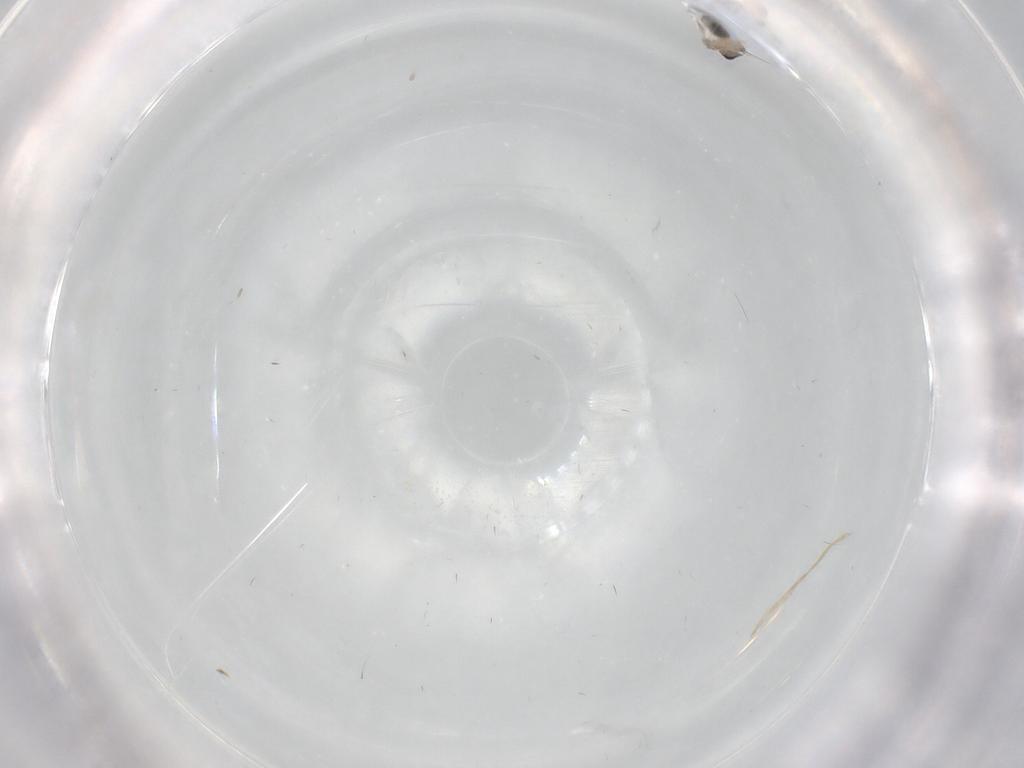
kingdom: Animalia
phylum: Arthropoda
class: Insecta
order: Diptera
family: Cecidomyiidae
